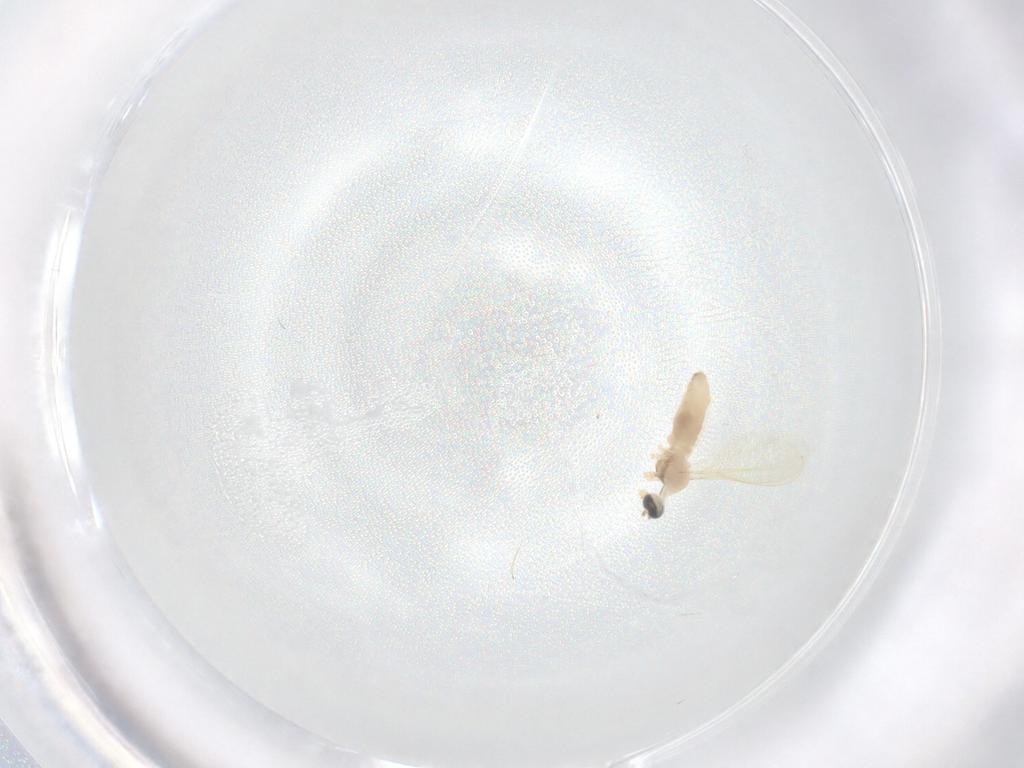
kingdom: Animalia
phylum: Arthropoda
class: Insecta
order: Diptera
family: Cecidomyiidae
